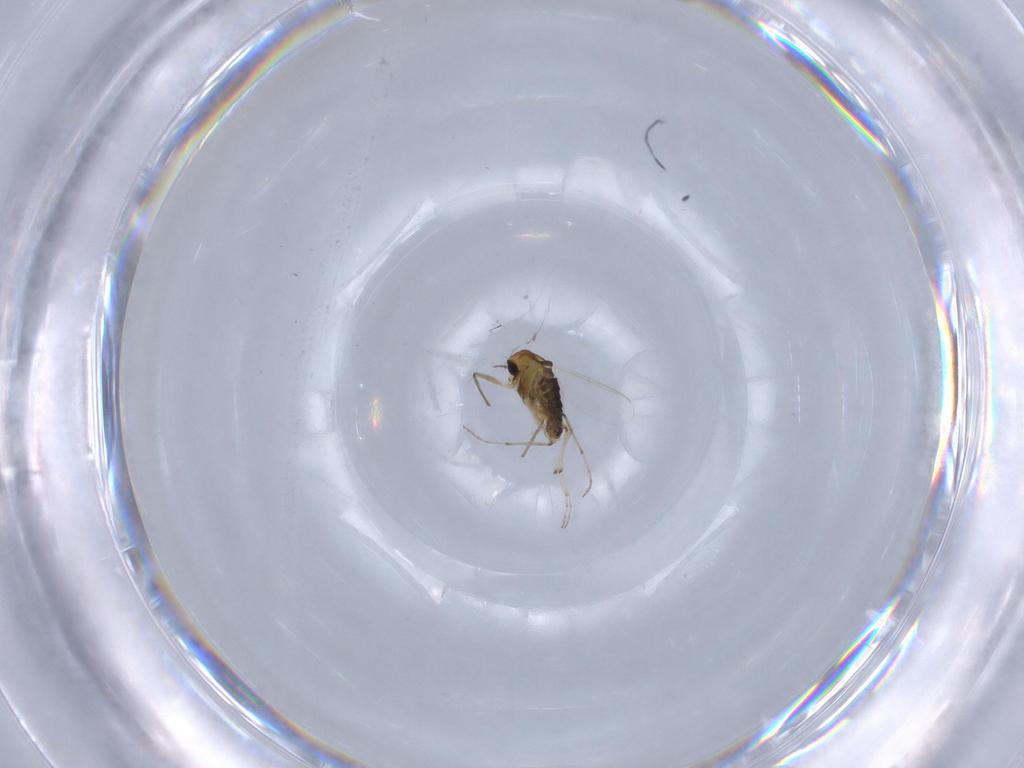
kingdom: Animalia
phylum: Arthropoda
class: Insecta
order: Diptera
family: Chironomidae
